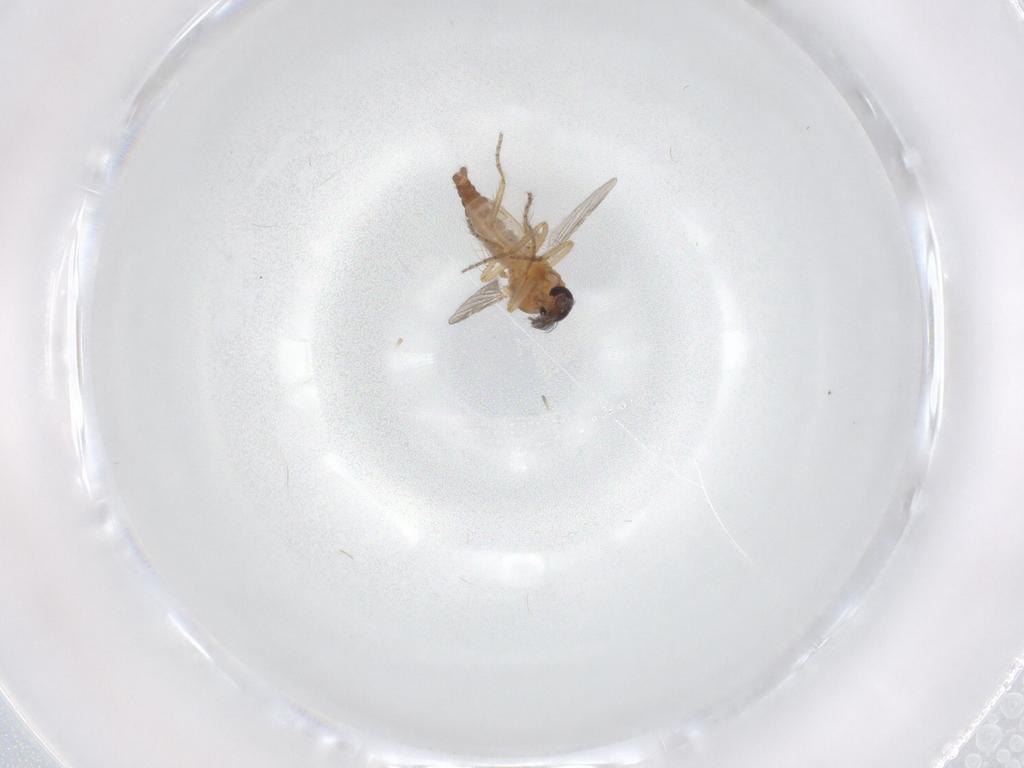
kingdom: Animalia
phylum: Arthropoda
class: Insecta
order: Diptera
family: Ceratopogonidae
